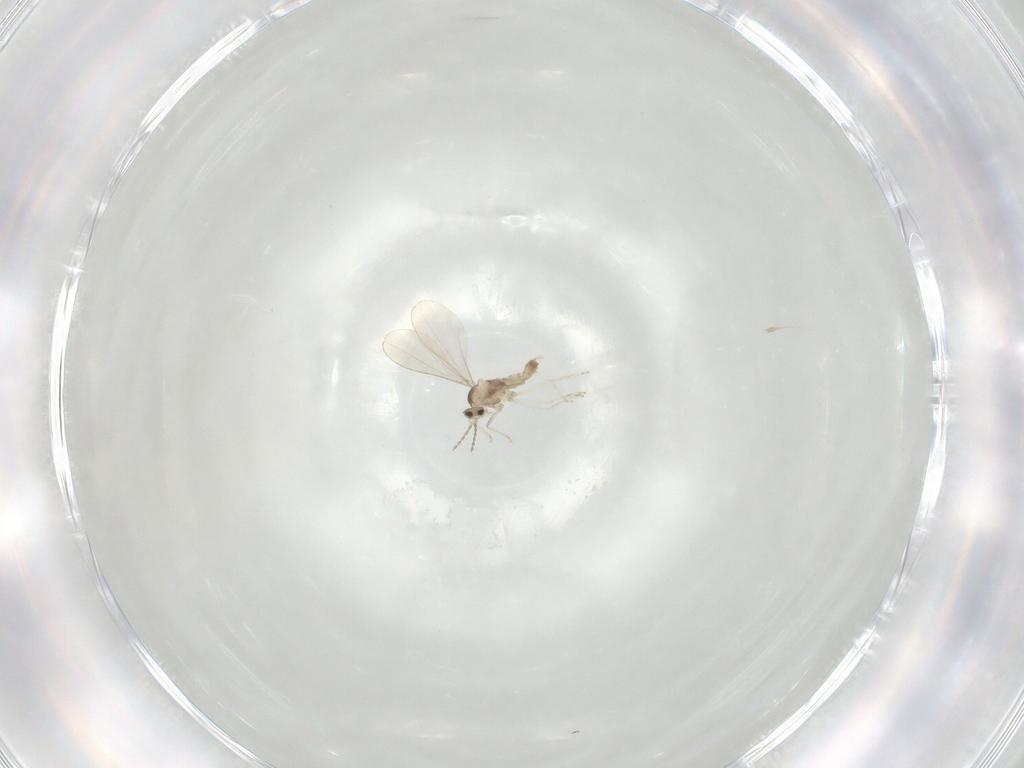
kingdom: Animalia
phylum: Arthropoda
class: Insecta
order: Diptera
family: Cecidomyiidae
